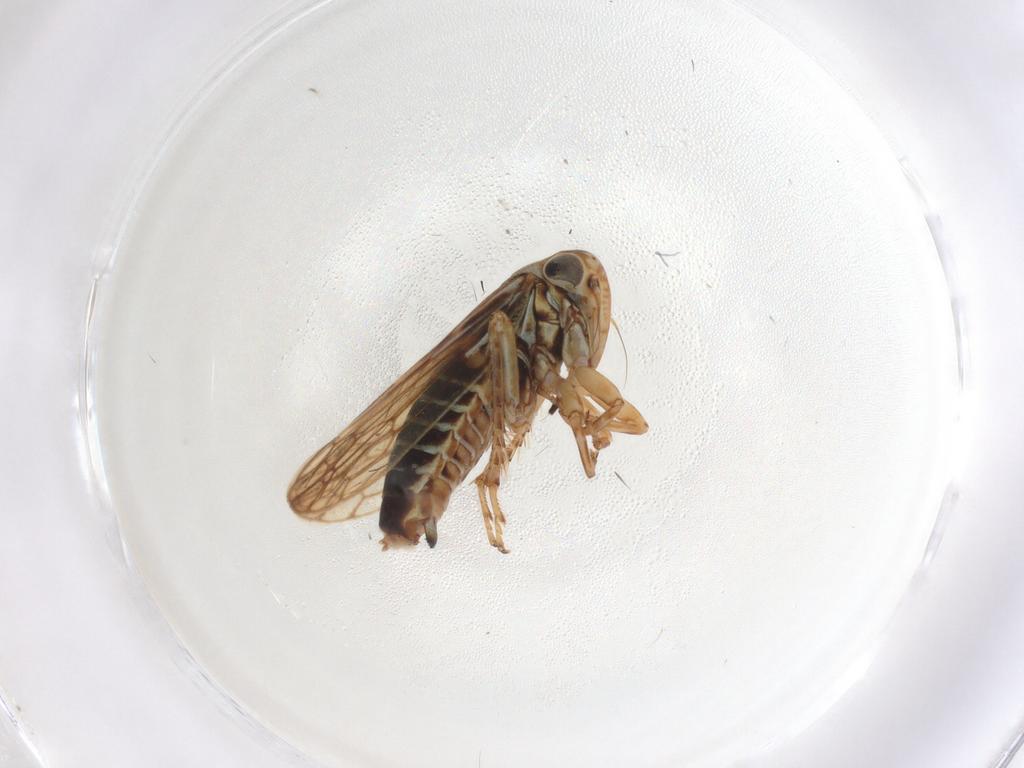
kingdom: Animalia
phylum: Arthropoda
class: Insecta
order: Hemiptera
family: Cicadellidae
